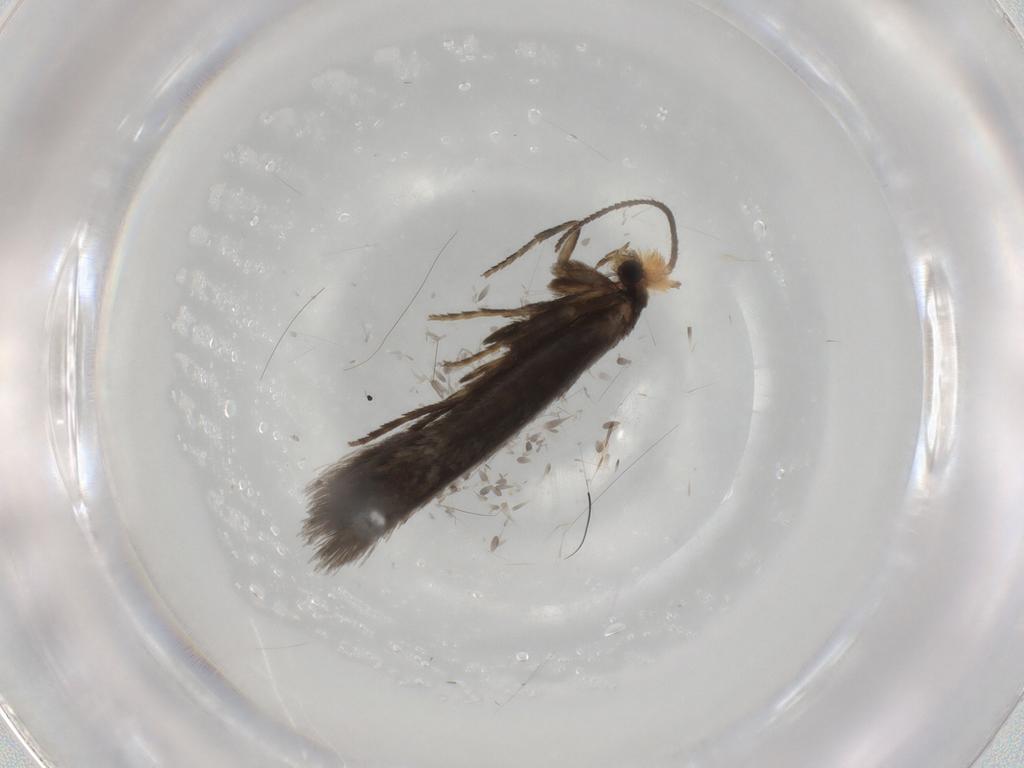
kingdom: Animalia
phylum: Arthropoda
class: Insecta
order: Lepidoptera
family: Nepticulidae
